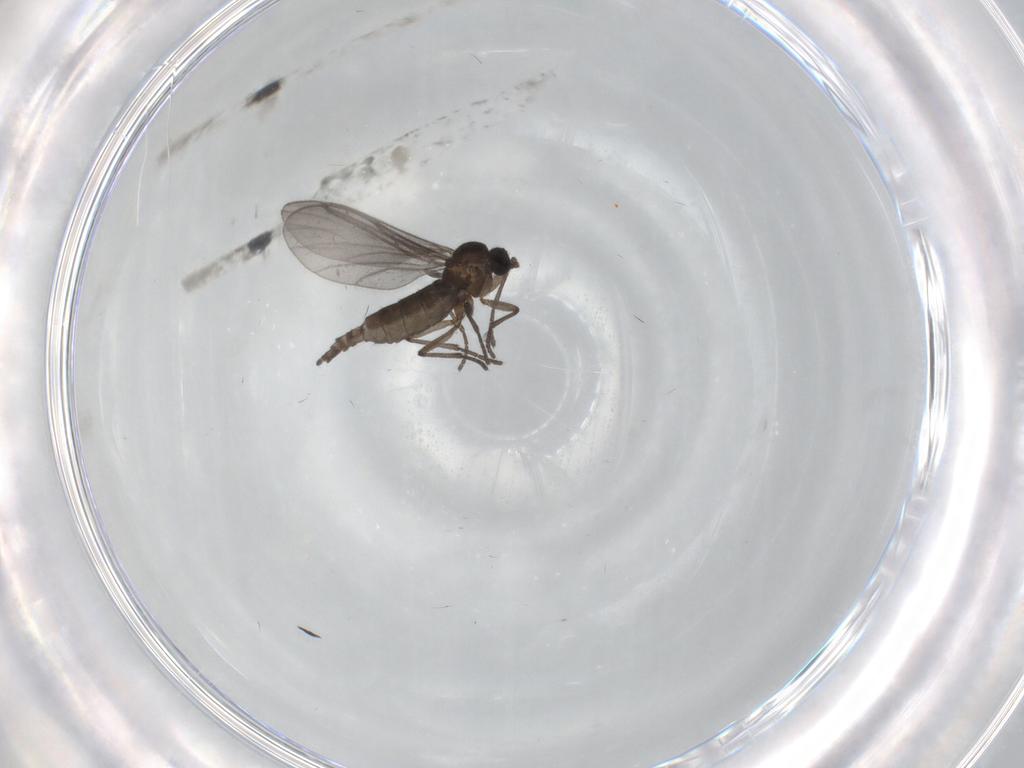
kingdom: Animalia
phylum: Arthropoda
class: Insecta
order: Diptera
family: Sciaridae
